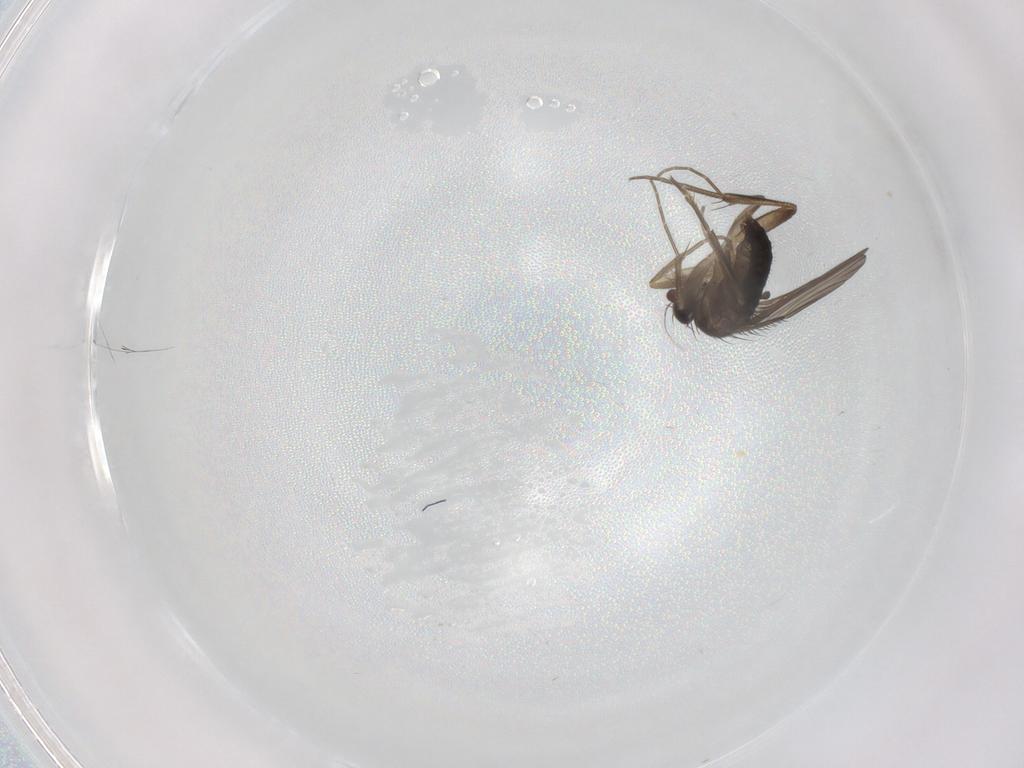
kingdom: Animalia
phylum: Arthropoda
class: Insecta
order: Diptera
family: Phoridae
